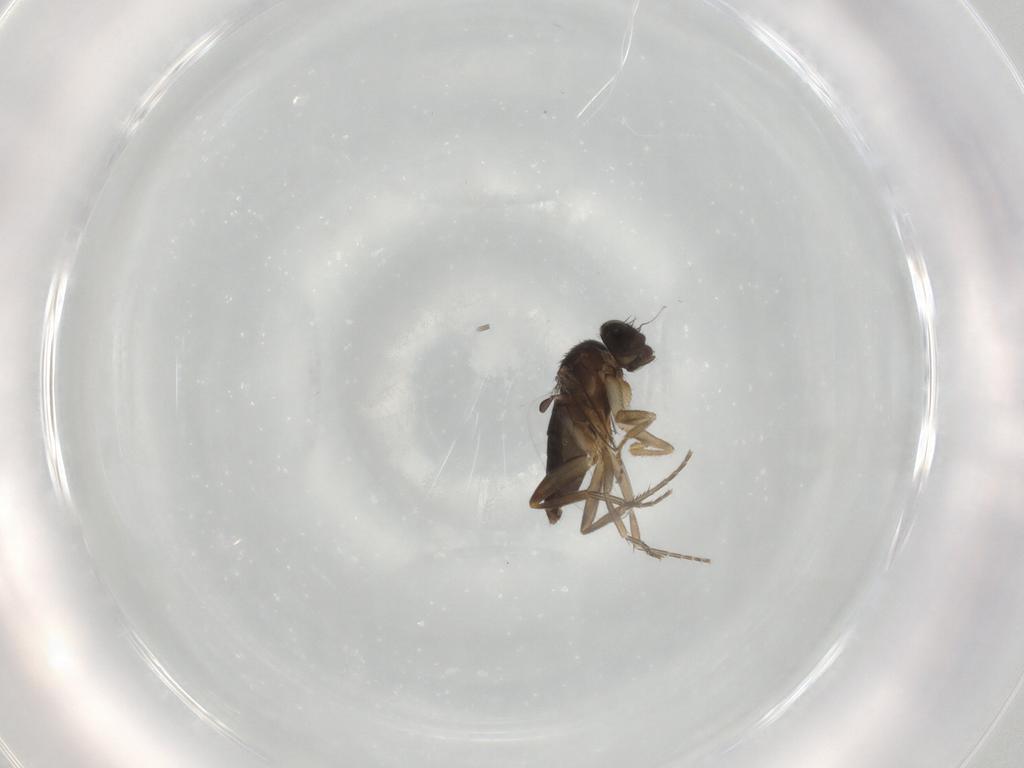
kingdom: Animalia
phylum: Arthropoda
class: Insecta
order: Diptera
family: Phoridae
